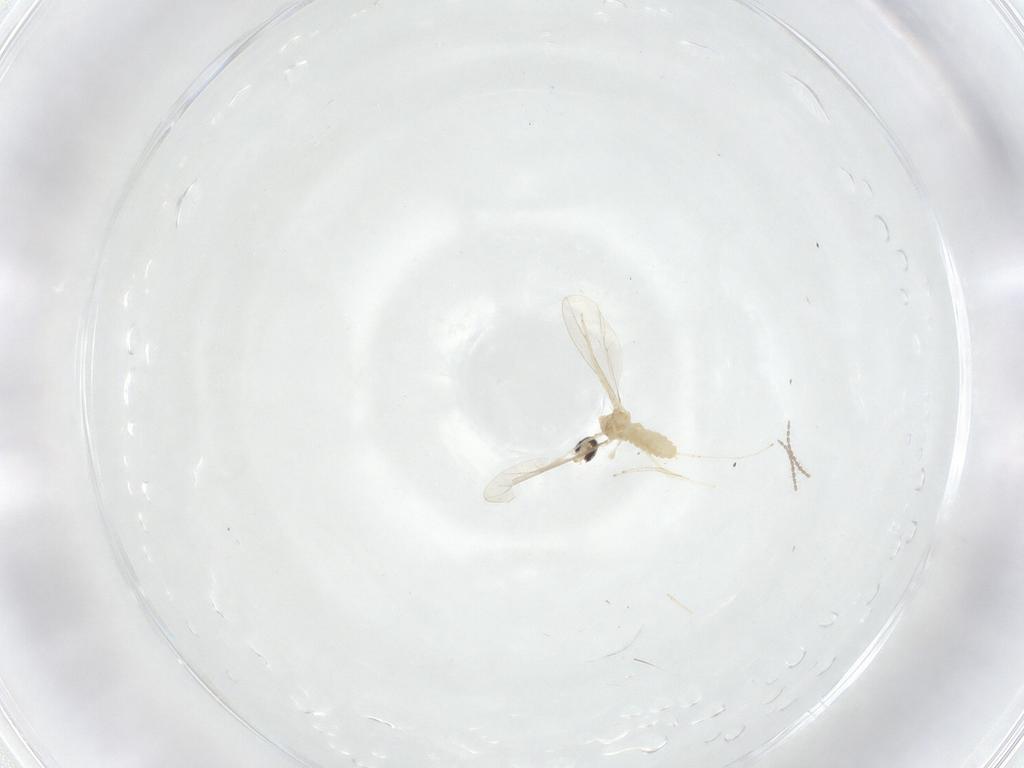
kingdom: Animalia
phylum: Arthropoda
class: Insecta
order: Diptera
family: Cecidomyiidae
